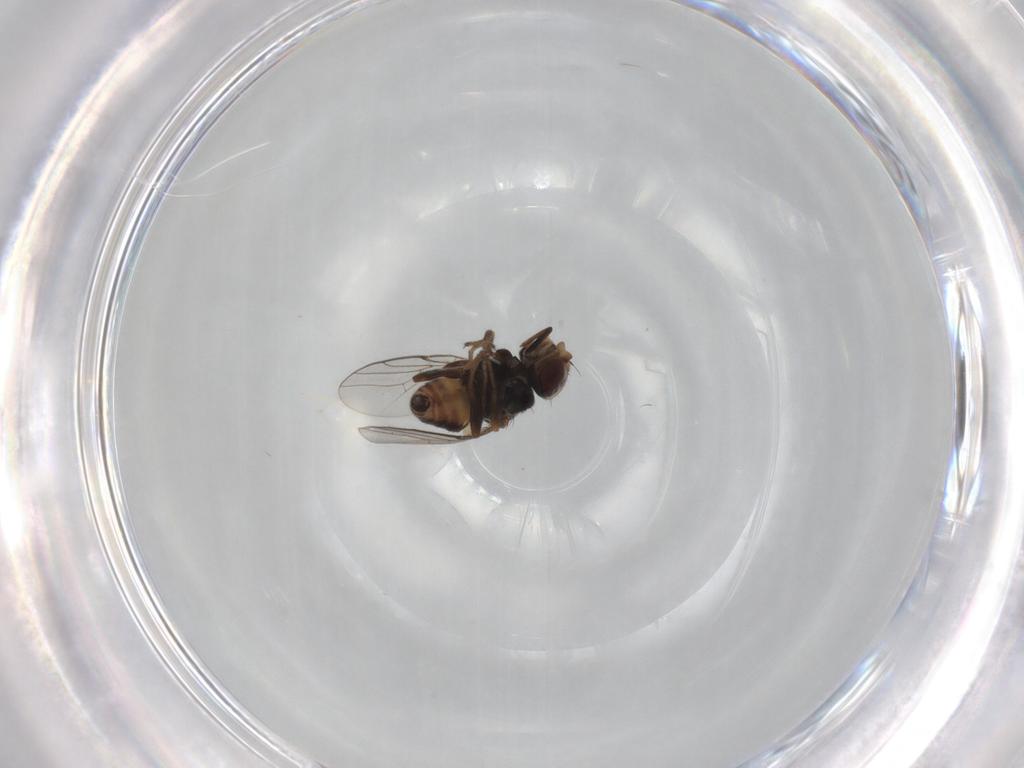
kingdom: Animalia
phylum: Arthropoda
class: Insecta
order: Diptera
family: Chloropidae
